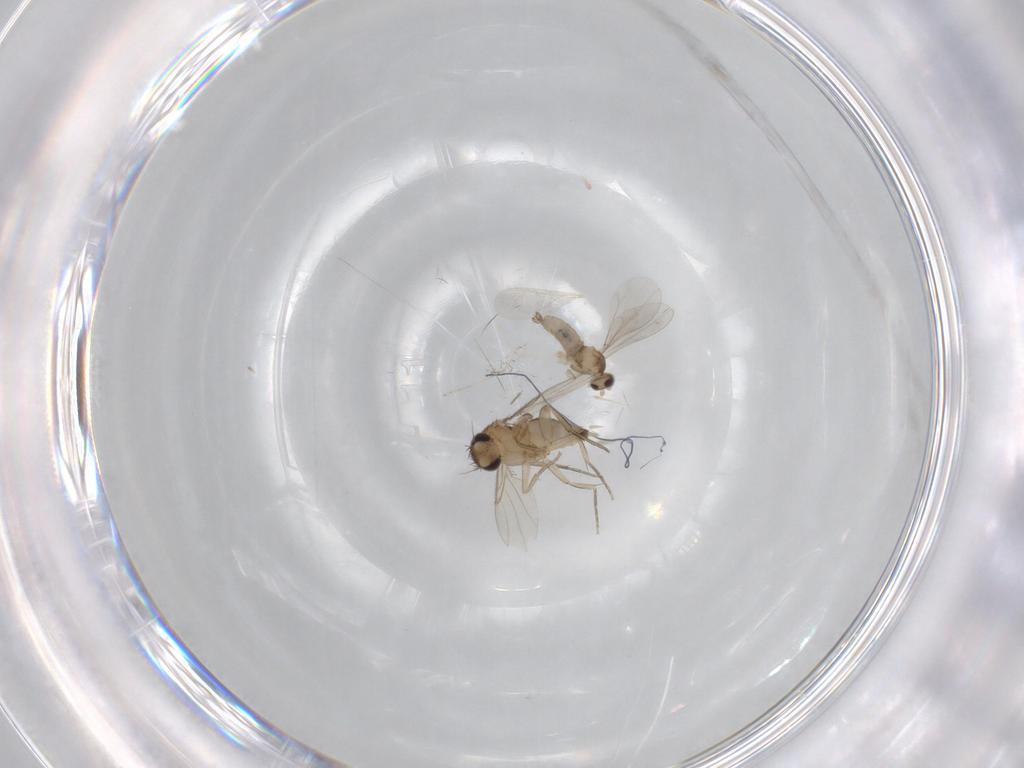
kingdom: Animalia
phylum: Arthropoda
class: Insecta
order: Diptera
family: Cecidomyiidae
